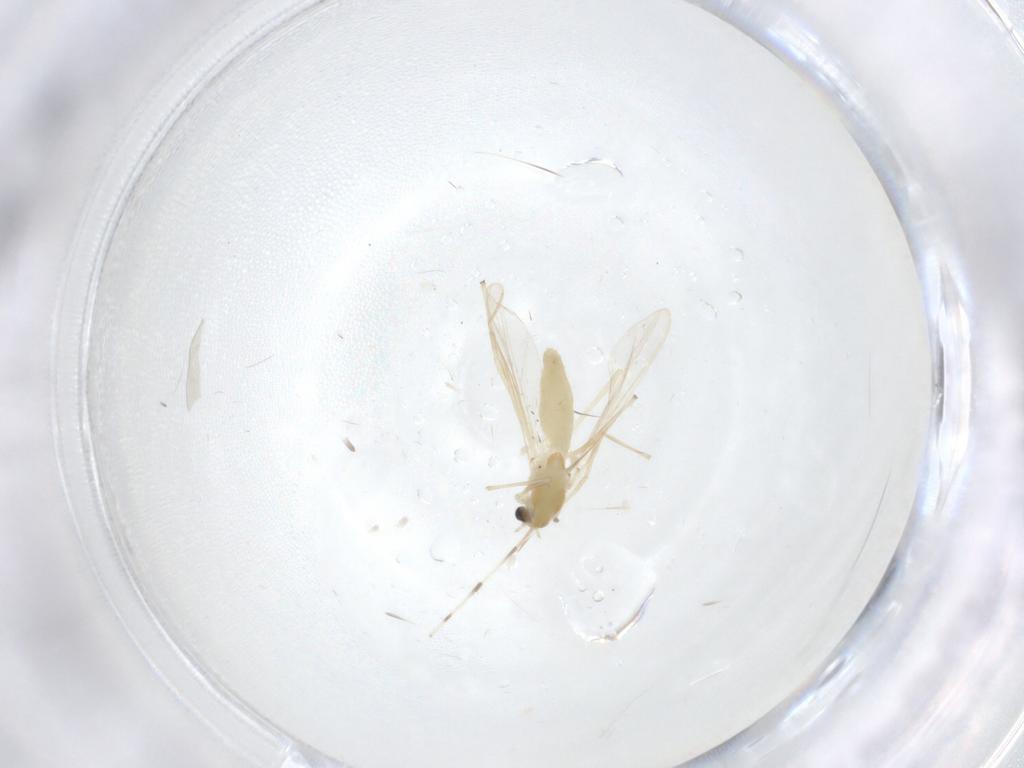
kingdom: Animalia
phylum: Arthropoda
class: Insecta
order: Diptera
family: Chironomidae
